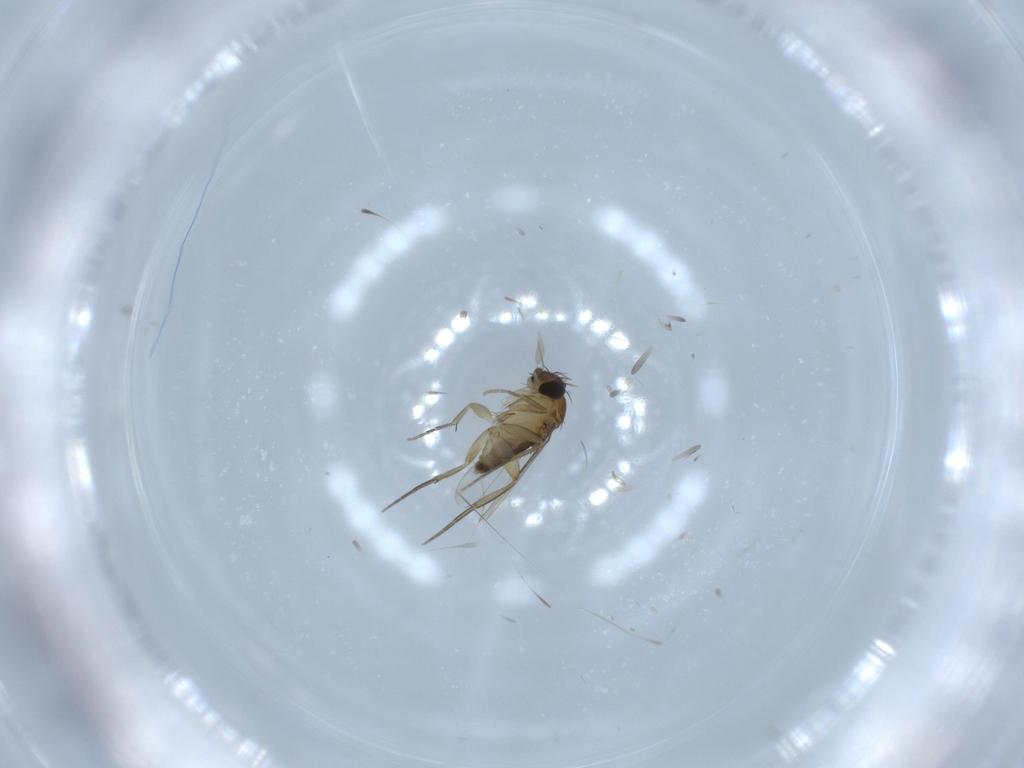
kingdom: Animalia
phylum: Arthropoda
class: Insecta
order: Diptera
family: Phoridae
